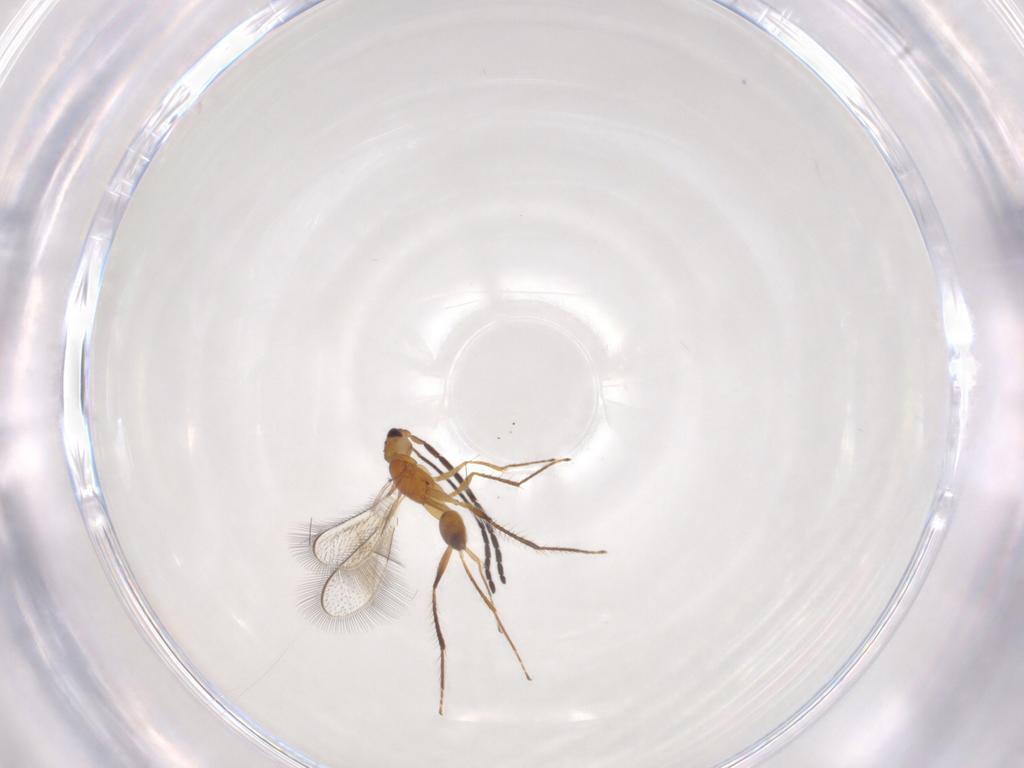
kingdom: Animalia
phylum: Arthropoda
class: Insecta
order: Hymenoptera
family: Mymaridae
